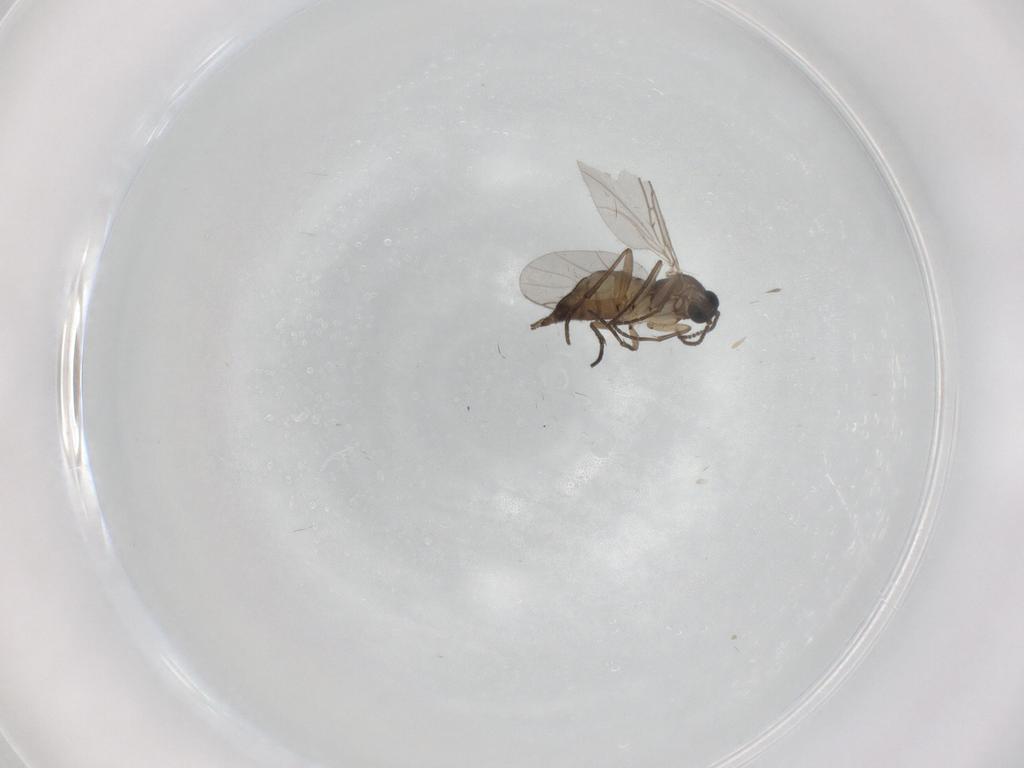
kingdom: Animalia
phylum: Arthropoda
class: Insecta
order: Diptera
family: Sciaridae
